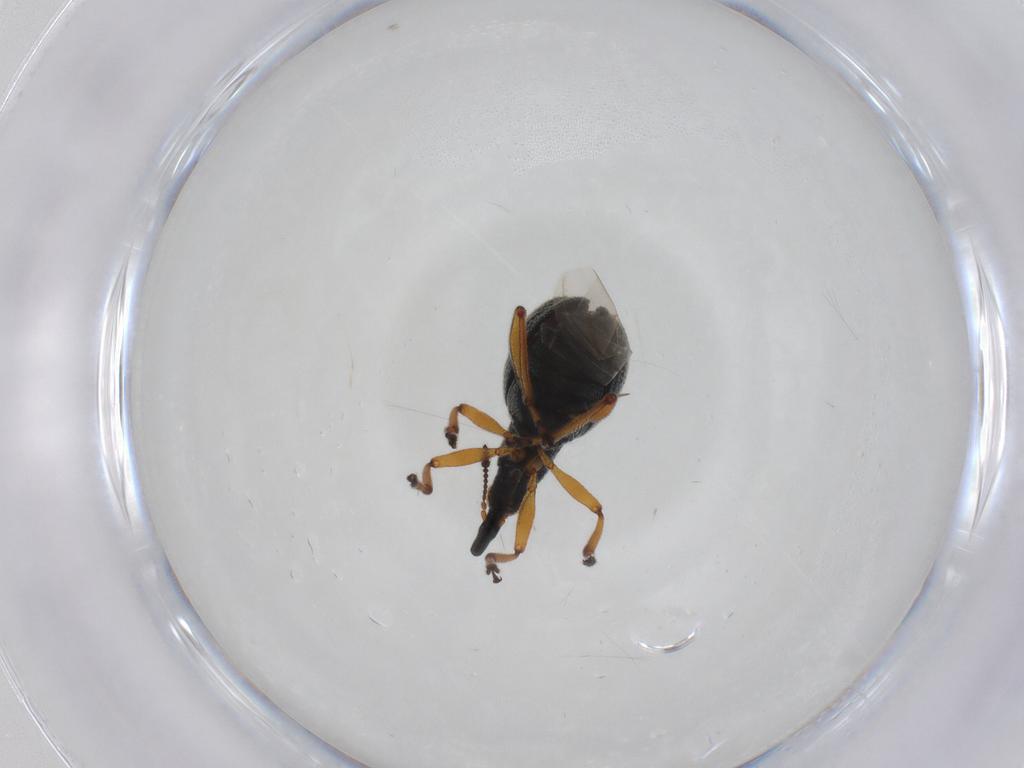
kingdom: Animalia
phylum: Arthropoda
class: Insecta
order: Coleoptera
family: Brentidae
